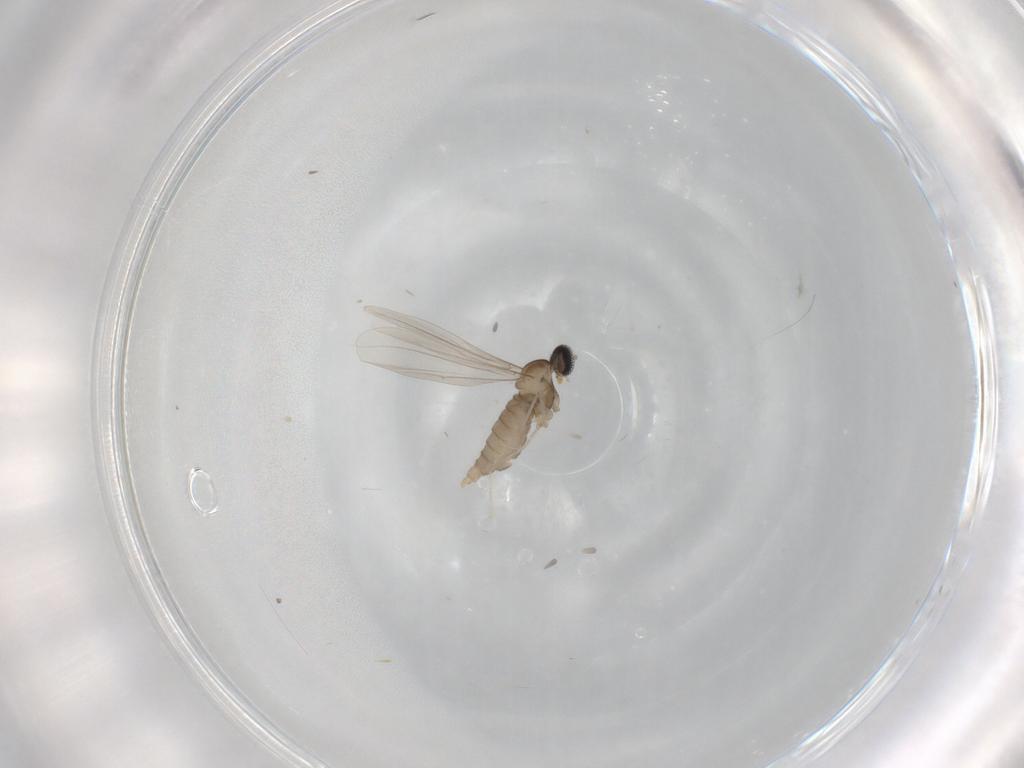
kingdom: Animalia
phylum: Arthropoda
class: Insecta
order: Diptera
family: Cecidomyiidae
